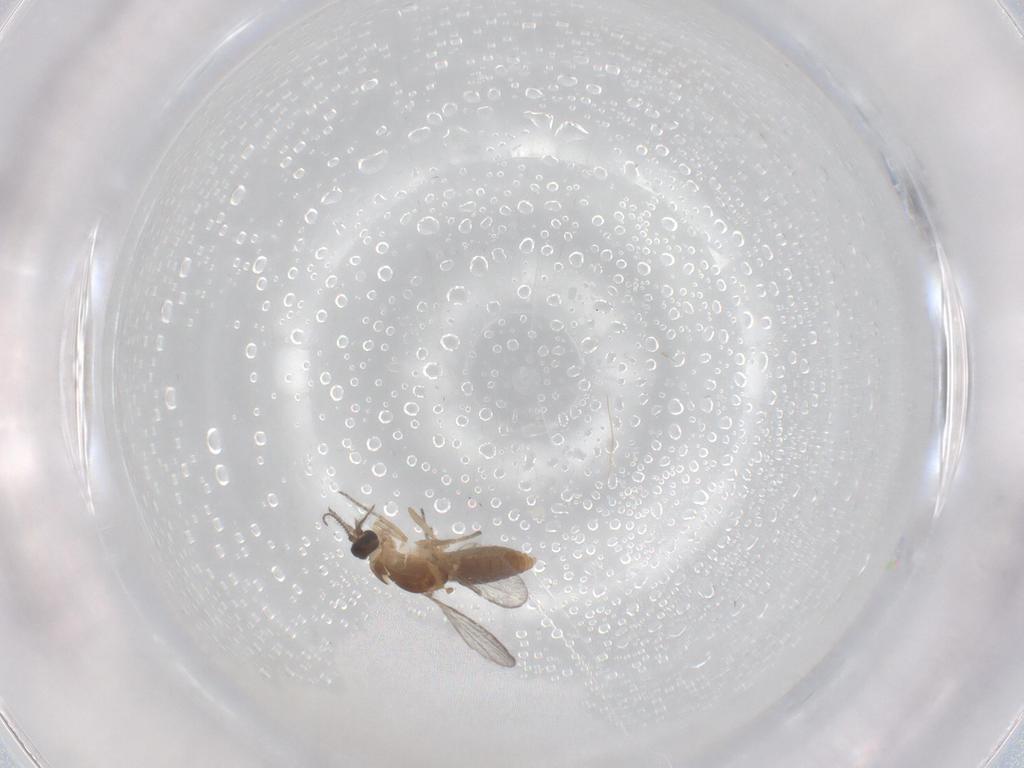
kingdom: Animalia
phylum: Arthropoda
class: Insecta
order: Diptera
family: Ceratopogonidae
